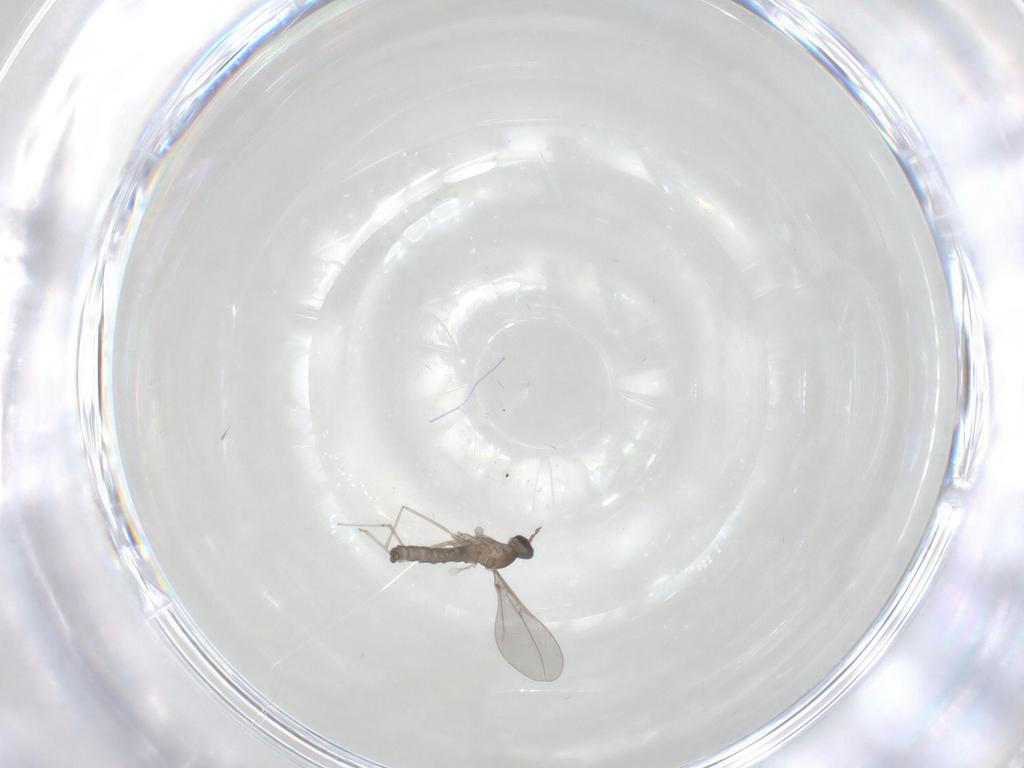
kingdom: Animalia
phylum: Arthropoda
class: Insecta
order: Diptera
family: Cecidomyiidae
